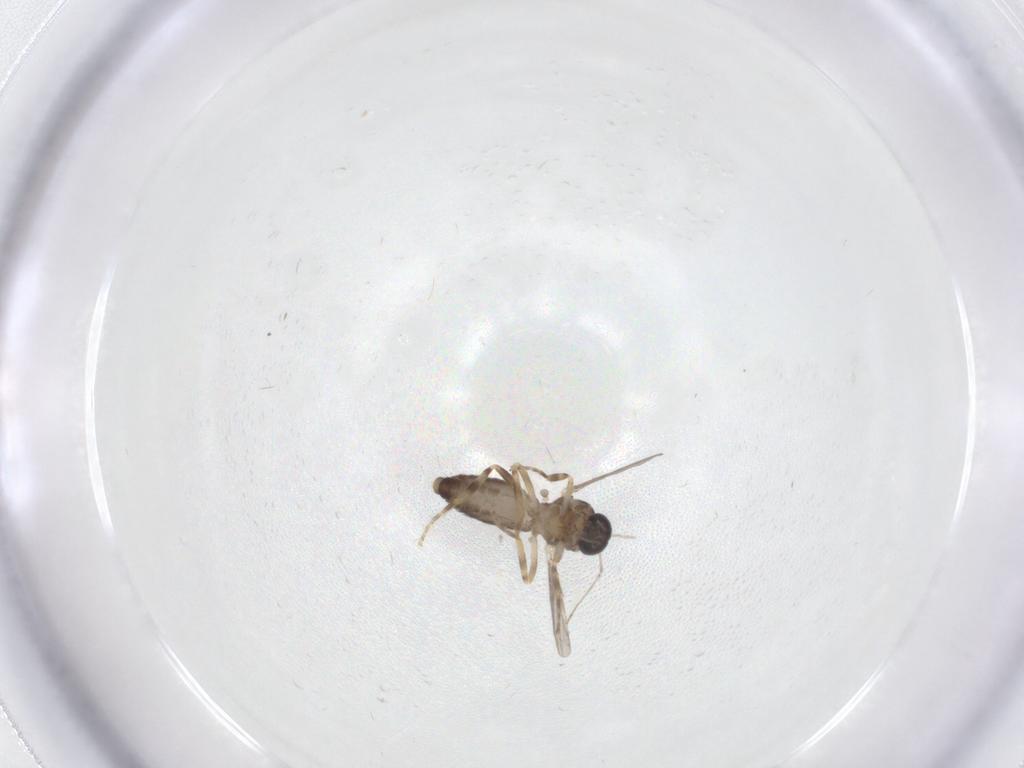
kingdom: Animalia
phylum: Arthropoda
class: Insecta
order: Diptera
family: Ceratopogonidae
